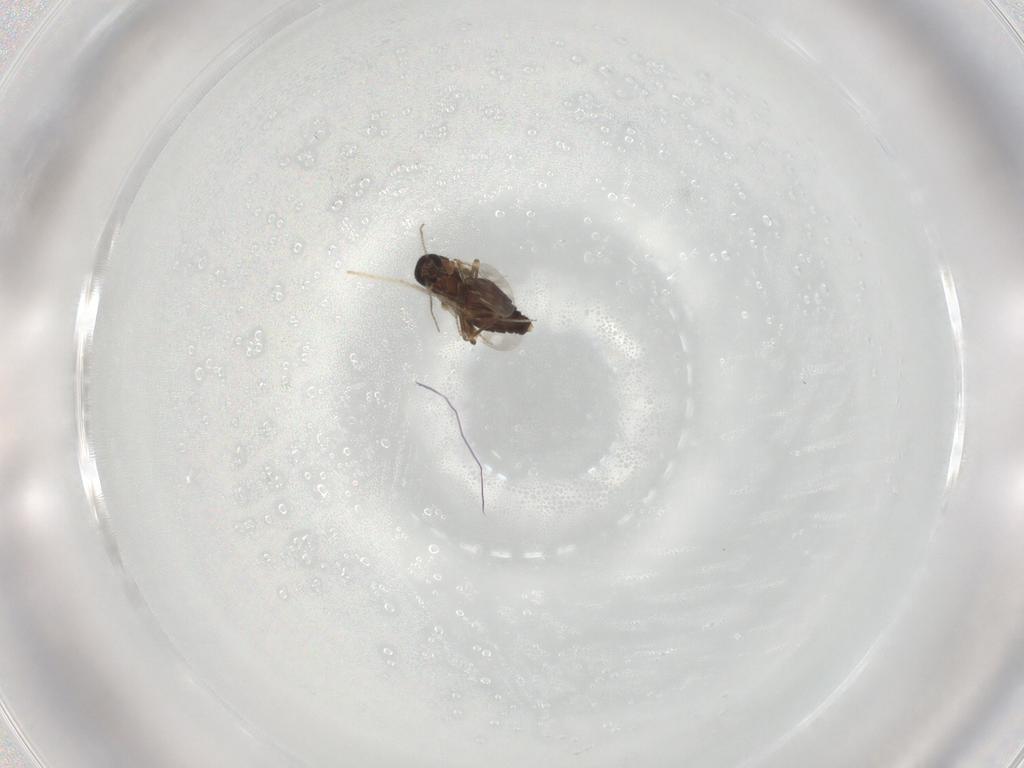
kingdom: Animalia
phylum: Arthropoda
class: Insecta
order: Diptera
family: Ceratopogonidae
